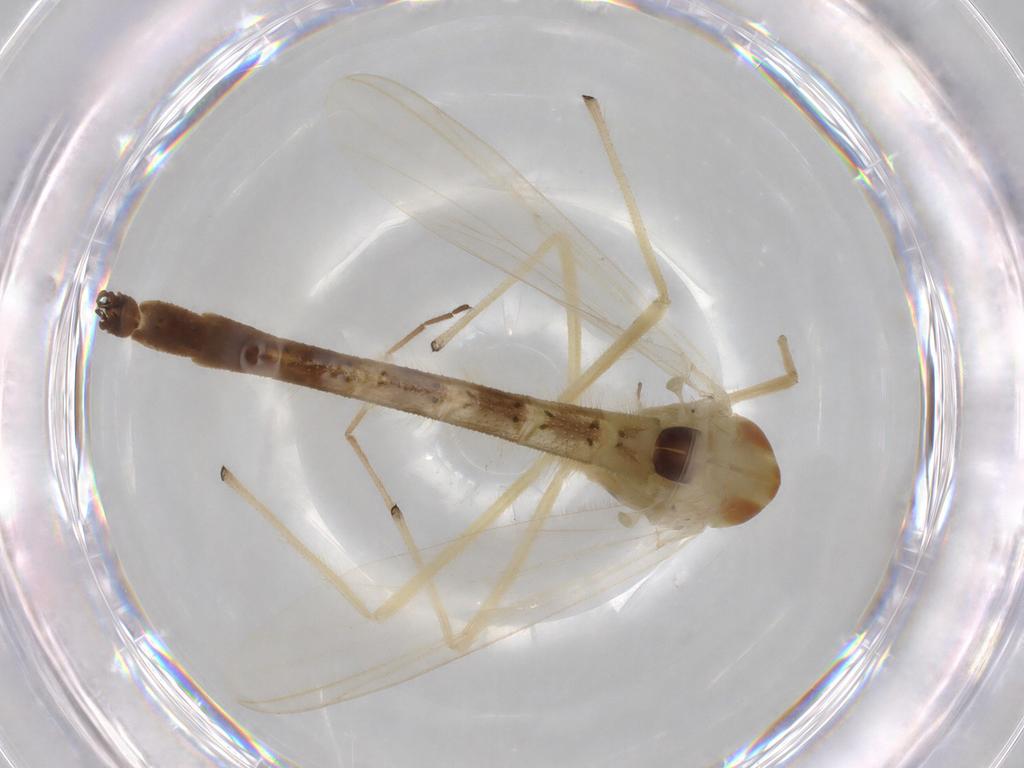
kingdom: Animalia
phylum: Arthropoda
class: Insecta
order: Diptera
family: Chironomidae
